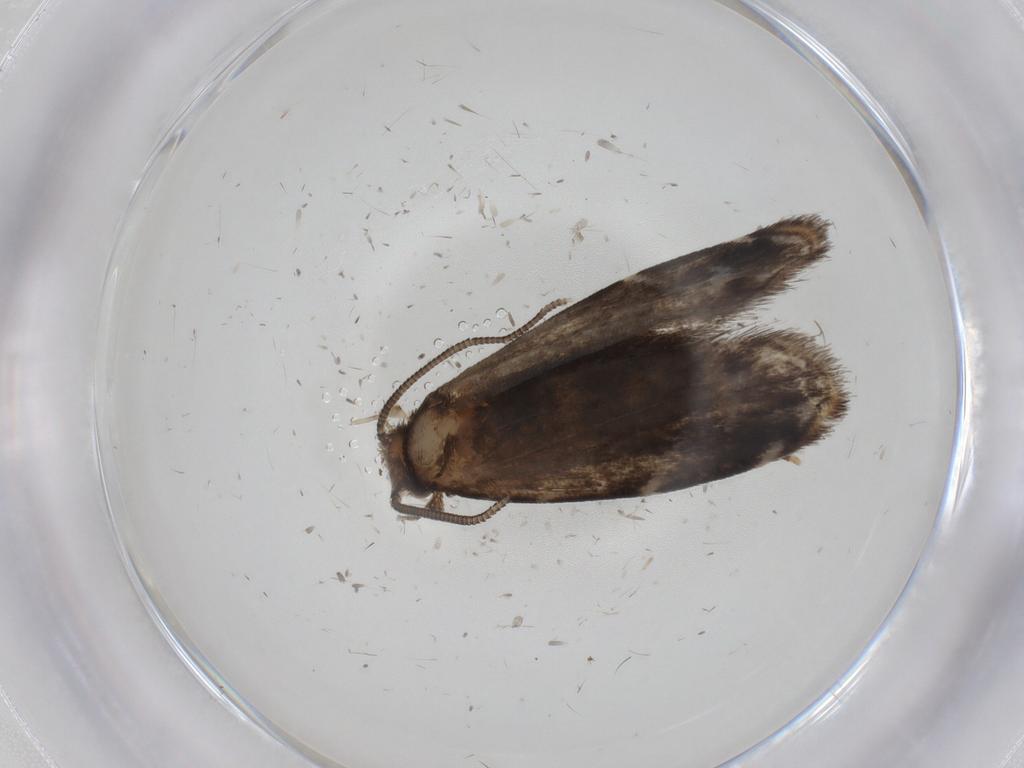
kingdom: Animalia
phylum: Arthropoda
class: Insecta
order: Lepidoptera
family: Dryadaulidae
